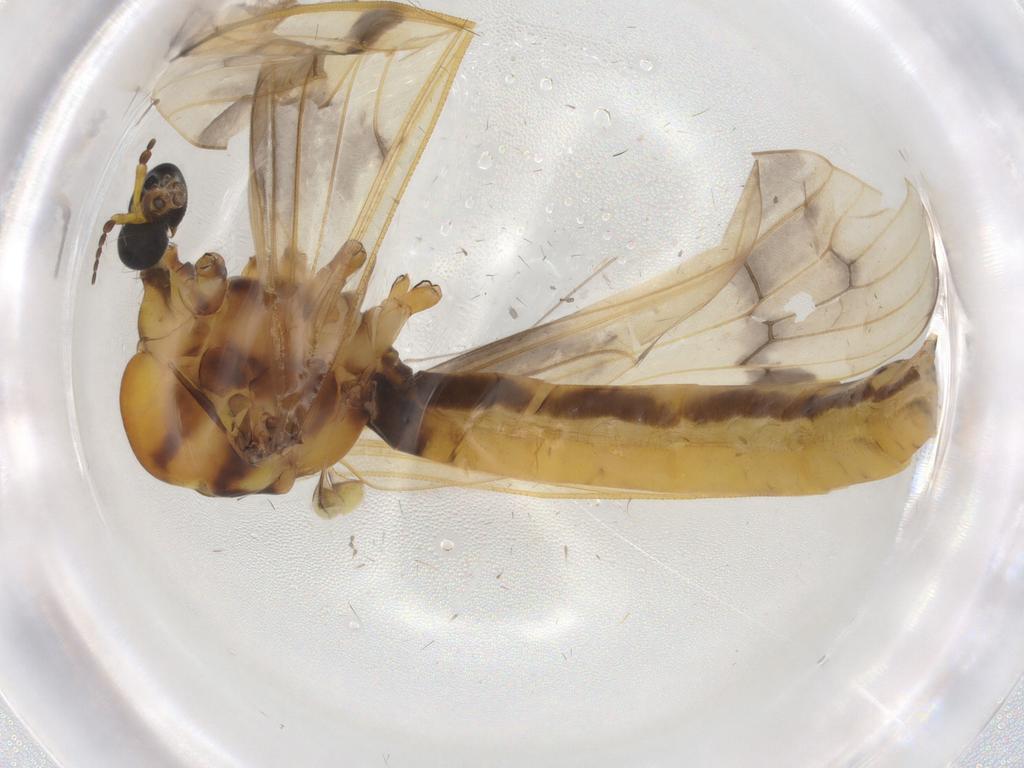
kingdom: Animalia
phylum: Arthropoda
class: Insecta
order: Diptera
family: Limoniidae
